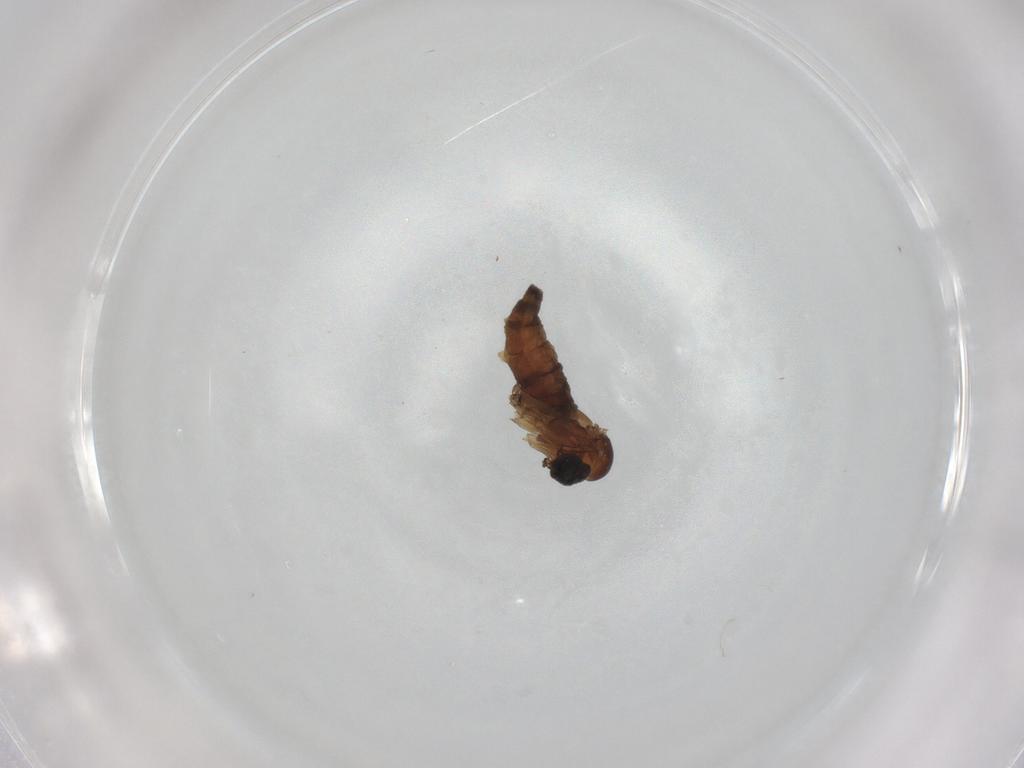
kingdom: Animalia
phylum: Arthropoda
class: Insecta
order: Diptera
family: Sciaridae
